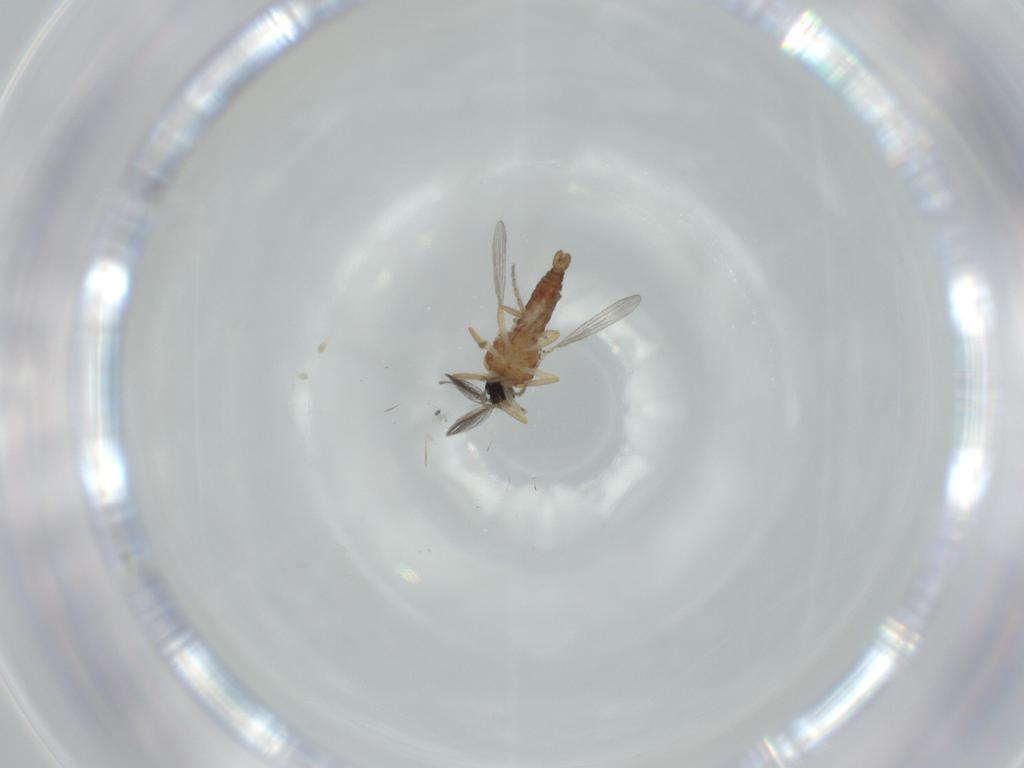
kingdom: Animalia
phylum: Arthropoda
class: Insecta
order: Diptera
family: Ceratopogonidae
